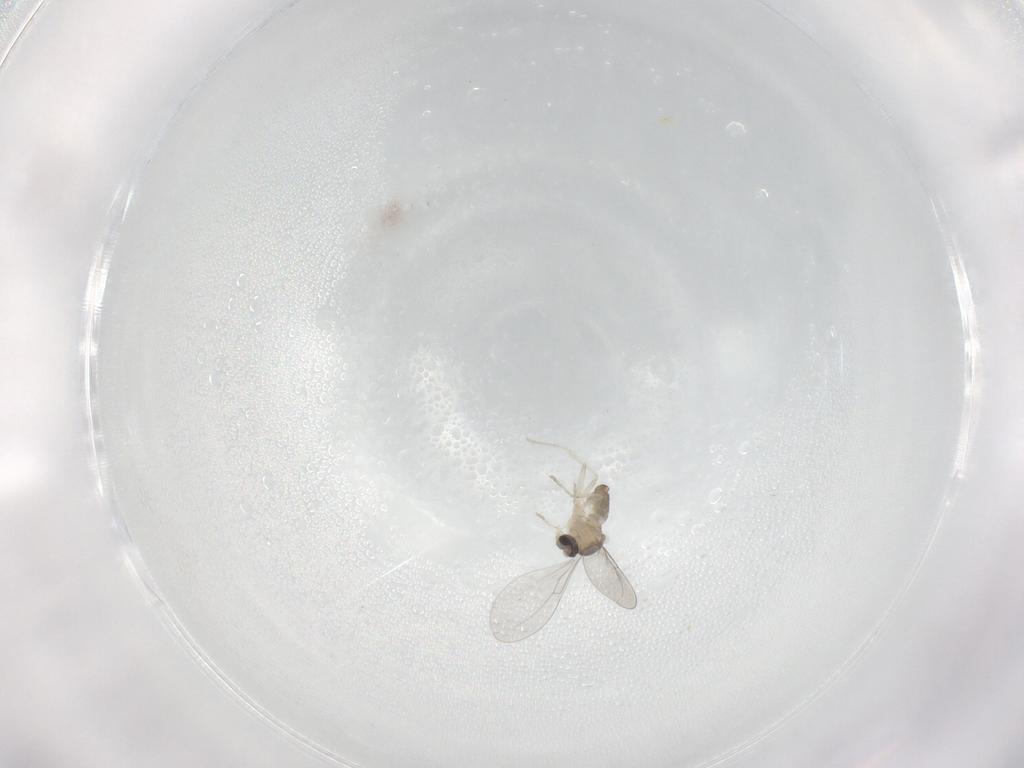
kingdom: Animalia
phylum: Arthropoda
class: Insecta
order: Diptera
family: Cecidomyiidae
